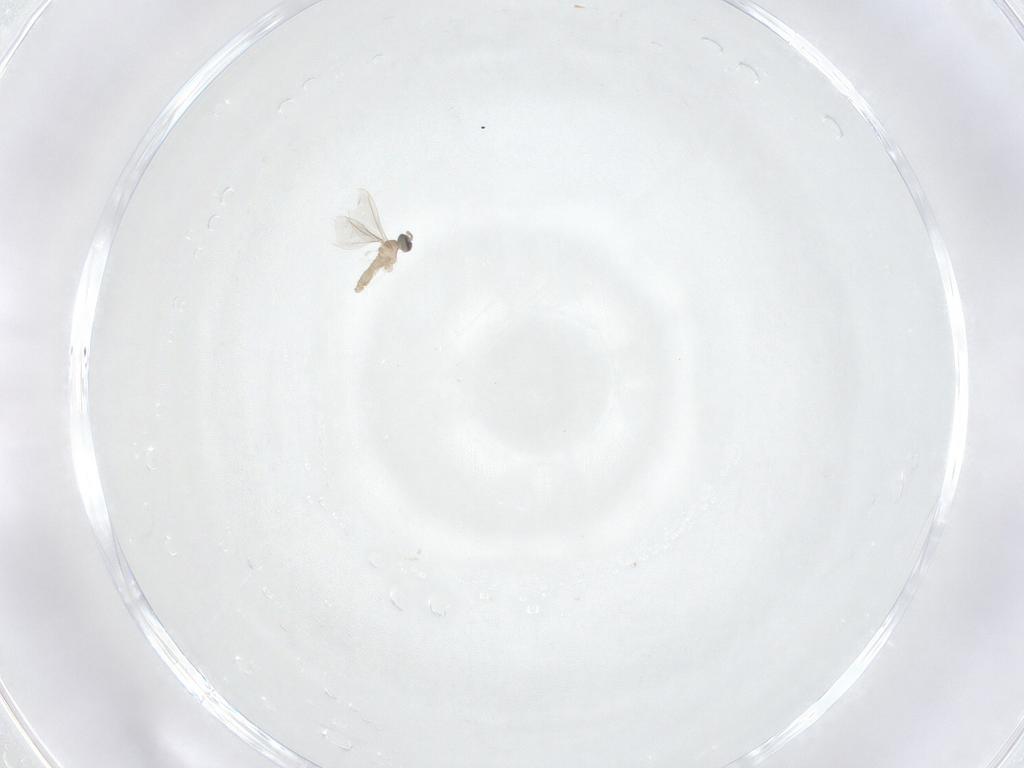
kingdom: Animalia
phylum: Arthropoda
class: Insecta
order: Diptera
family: Cecidomyiidae
